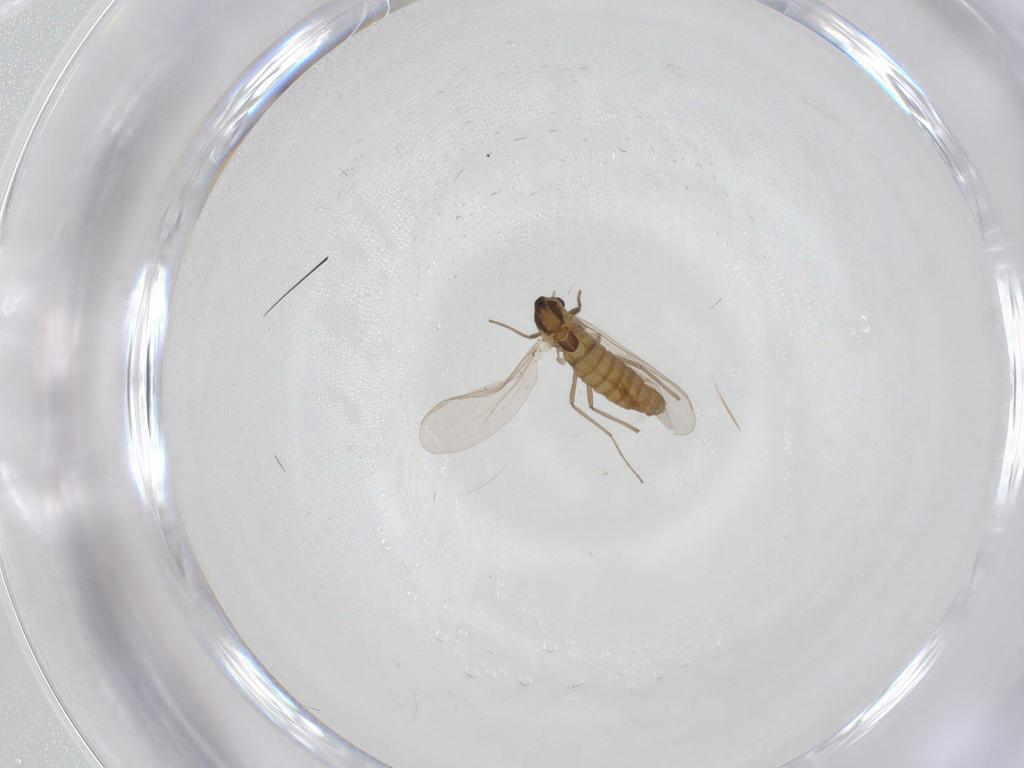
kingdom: Animalia
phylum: Arthropoda
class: Insecta
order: Diptera
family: Chironomidae
